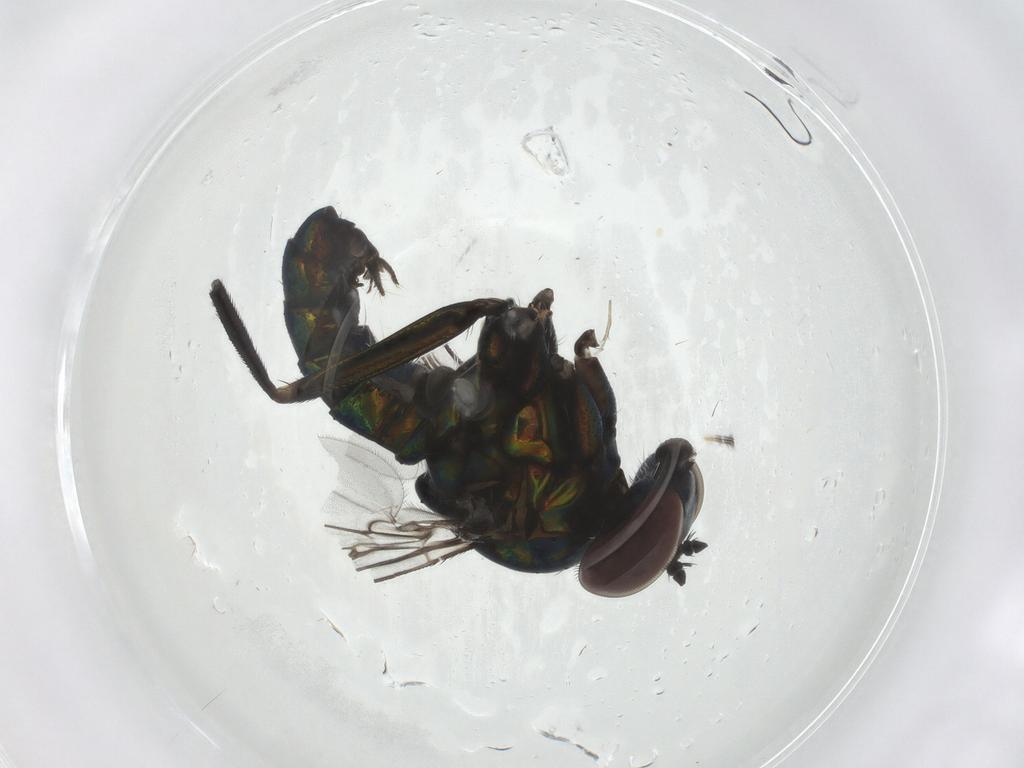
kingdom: Animalia
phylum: Arthropoda
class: Insecta
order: Diptera
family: Dolichopodidae
